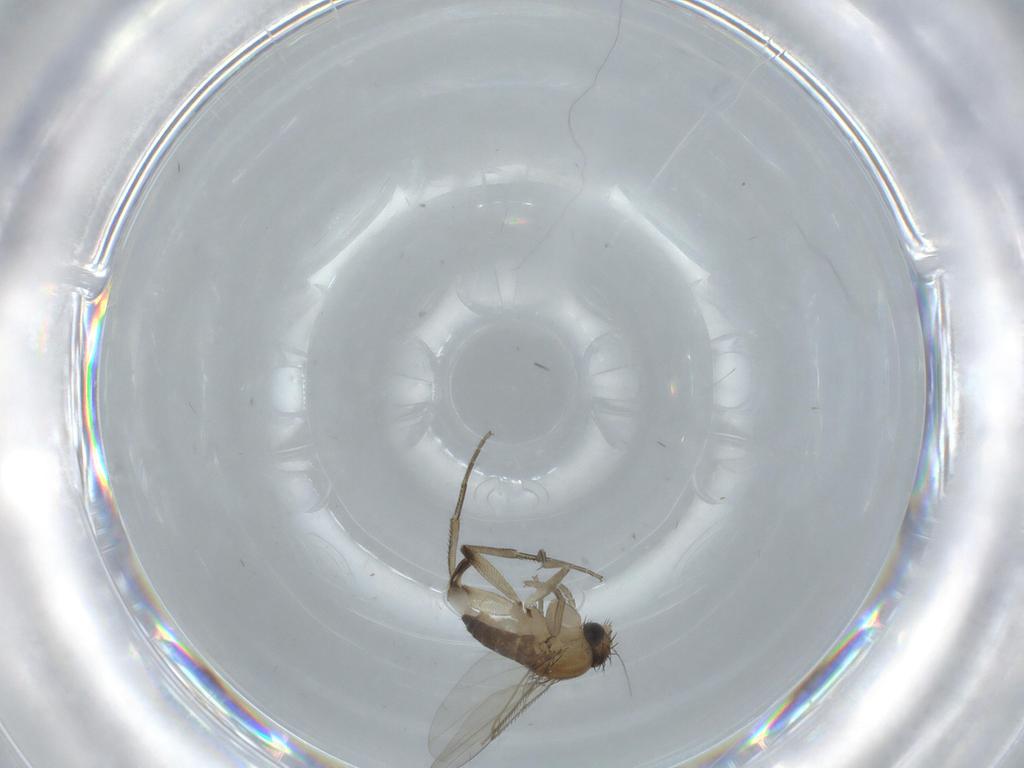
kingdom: Animalia
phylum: Arthropoda
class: Insecta
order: Diptera
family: Phoridae
